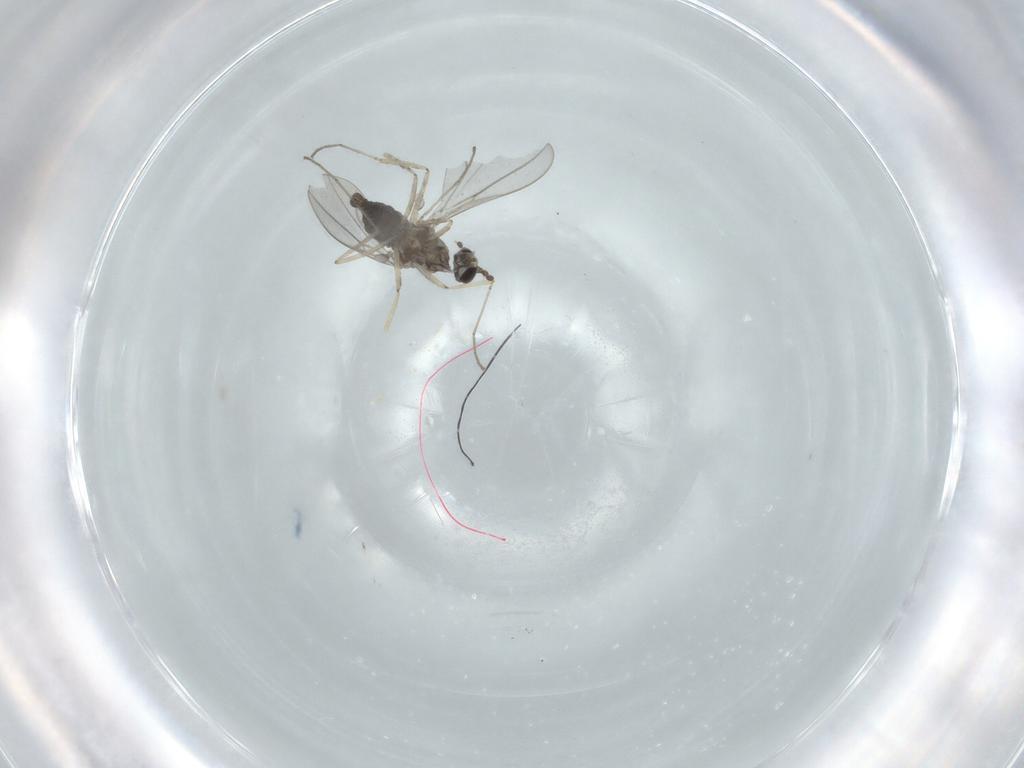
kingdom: Animalia
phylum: Arthropoda
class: Insecta
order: Diptera
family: Cecidomyiidae
